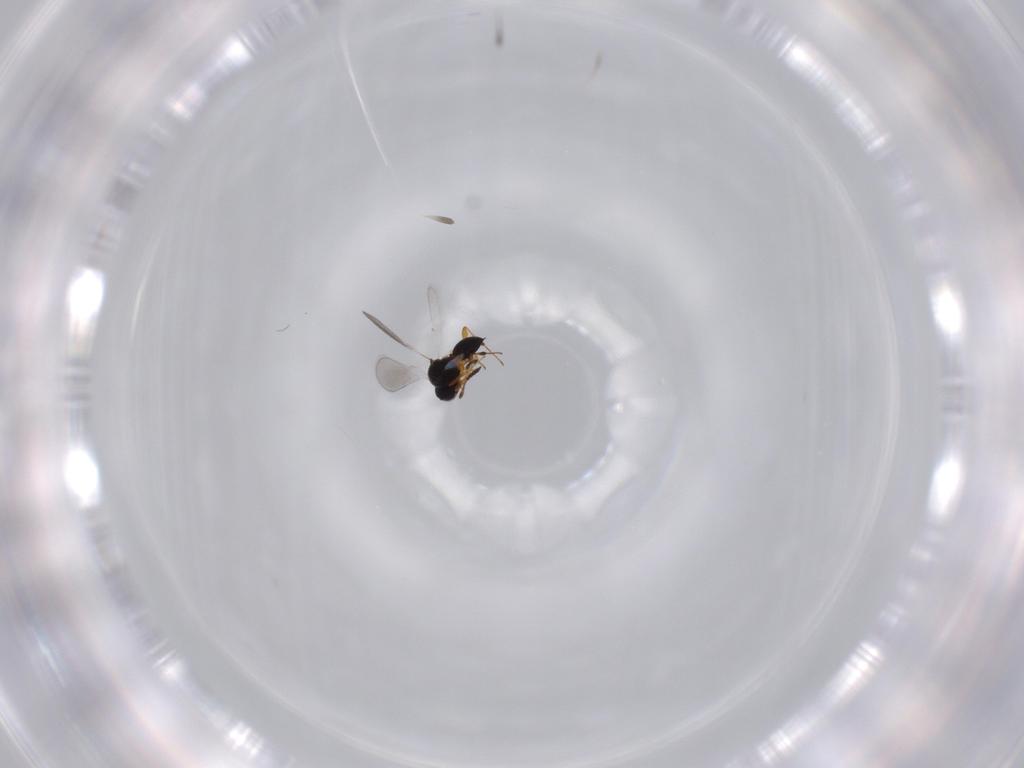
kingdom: Animalia
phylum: Arthropoda
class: Insecta
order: Hymenoptera
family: Platygastridae
